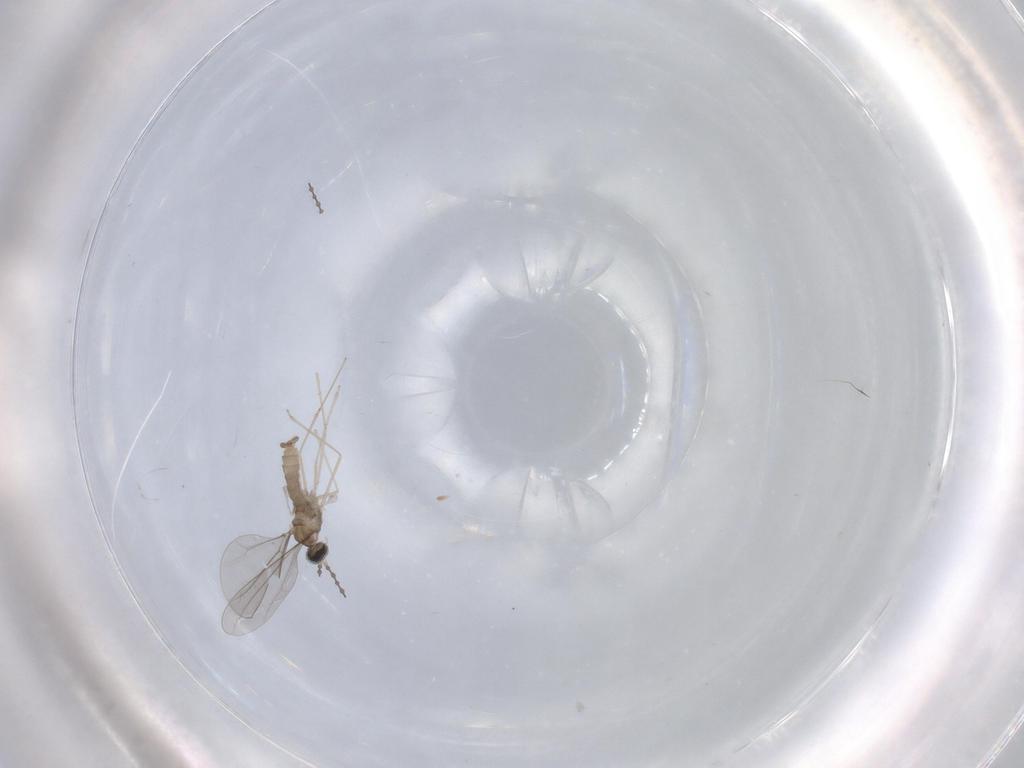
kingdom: Animalia
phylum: Arthropoda
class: Insecta
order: Diptera
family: Cecidomyiidae
